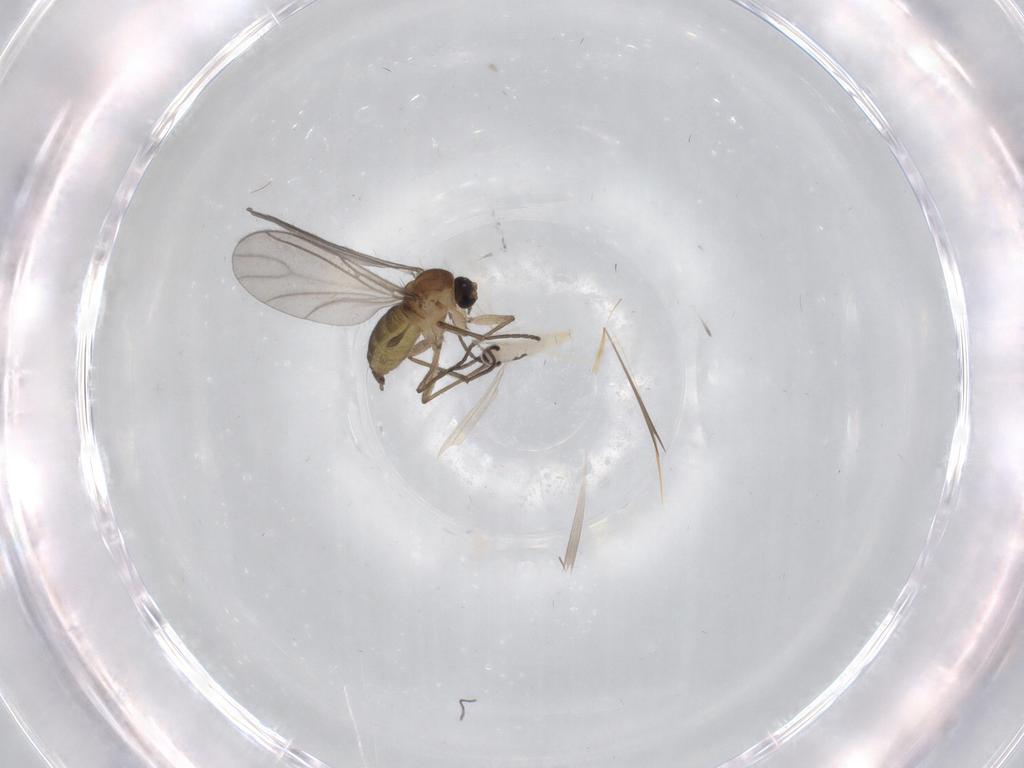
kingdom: Animalia
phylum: Arthropoda
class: Insecta
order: Diptera
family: Sciaridae
